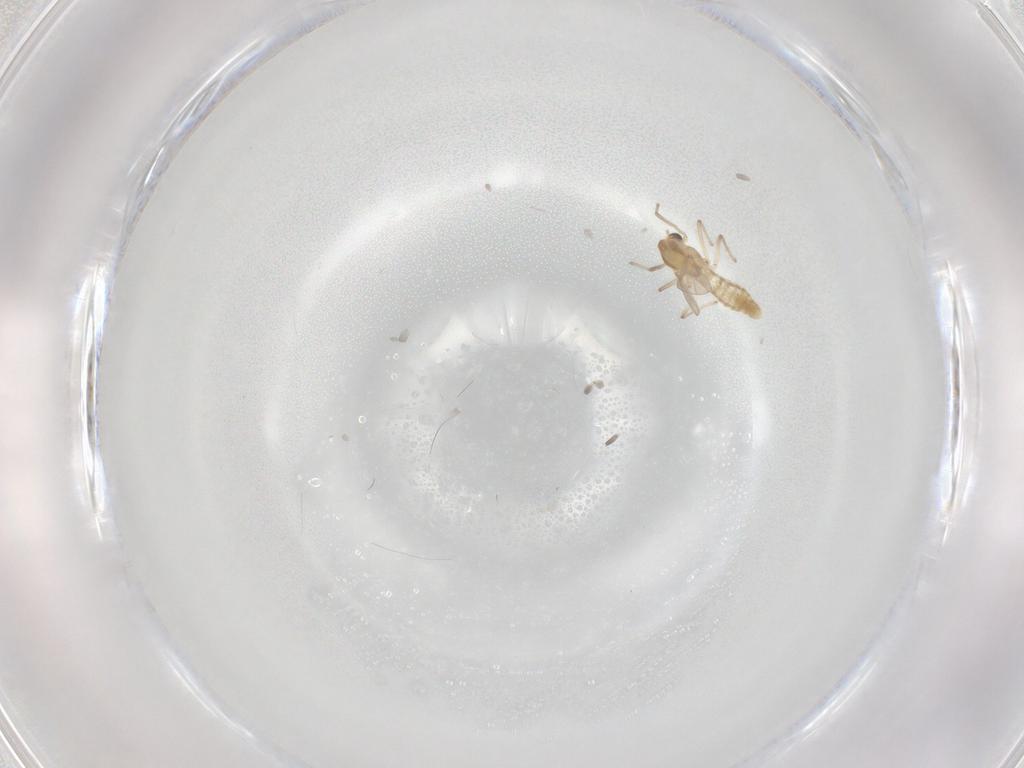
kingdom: Animalia
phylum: Arthropoda
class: Insecta
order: Diptera
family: Chironomidae
